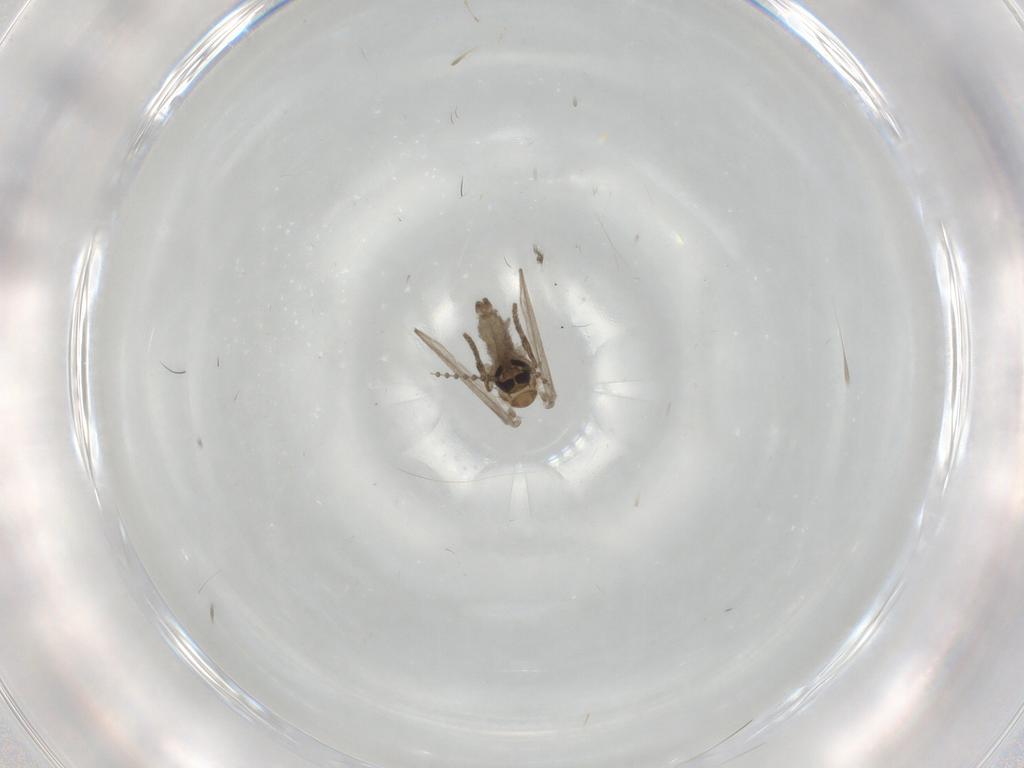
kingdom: Animalia
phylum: Arthropoda
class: Insecta
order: Diptera
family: Psychodidae
